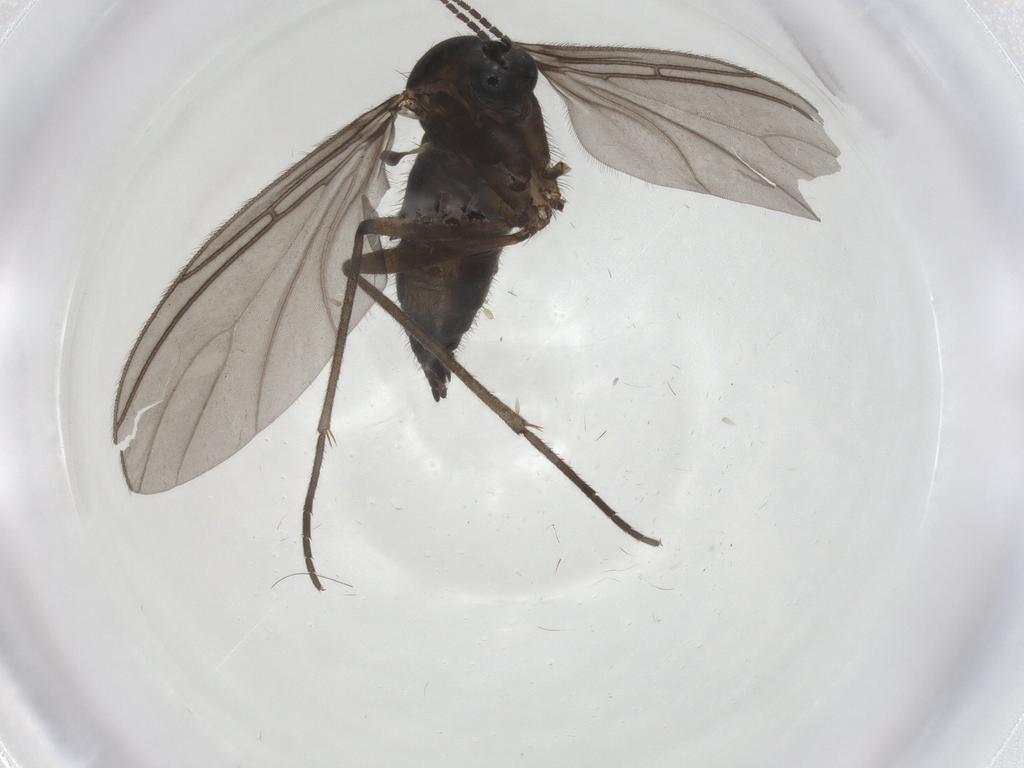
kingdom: Animalia
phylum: Arthropoda
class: Insecta
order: Diptera
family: Sciaridae
